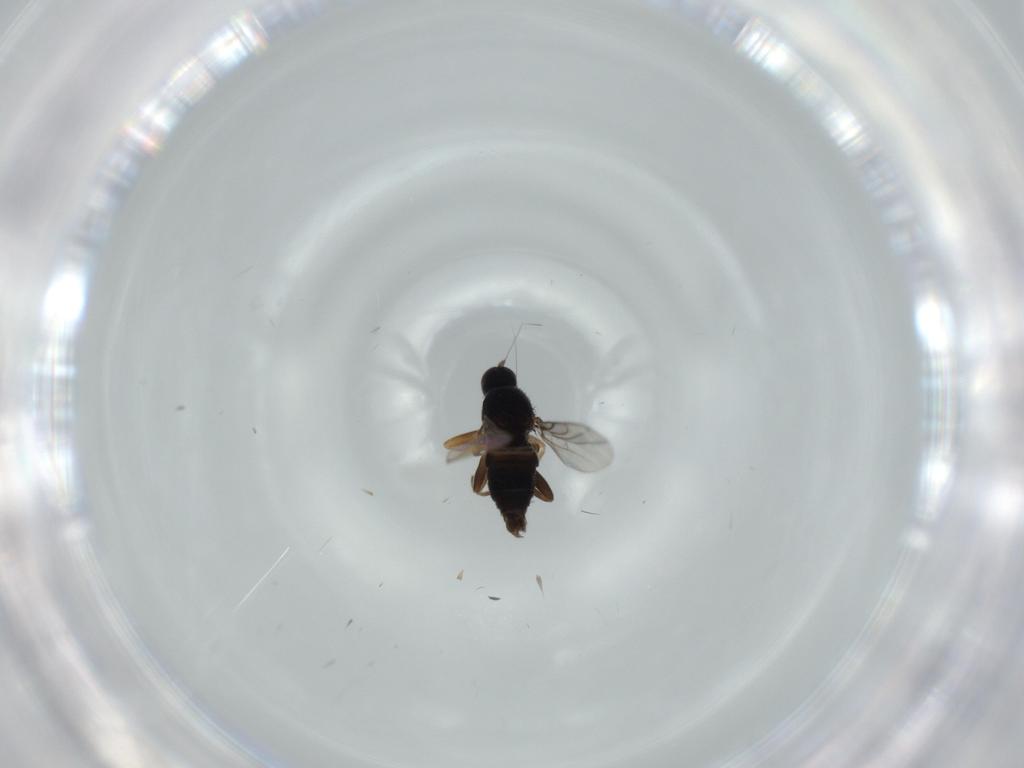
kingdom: Animalia
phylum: Arthropoda
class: Insecta
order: Diptera
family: Hybotidae
